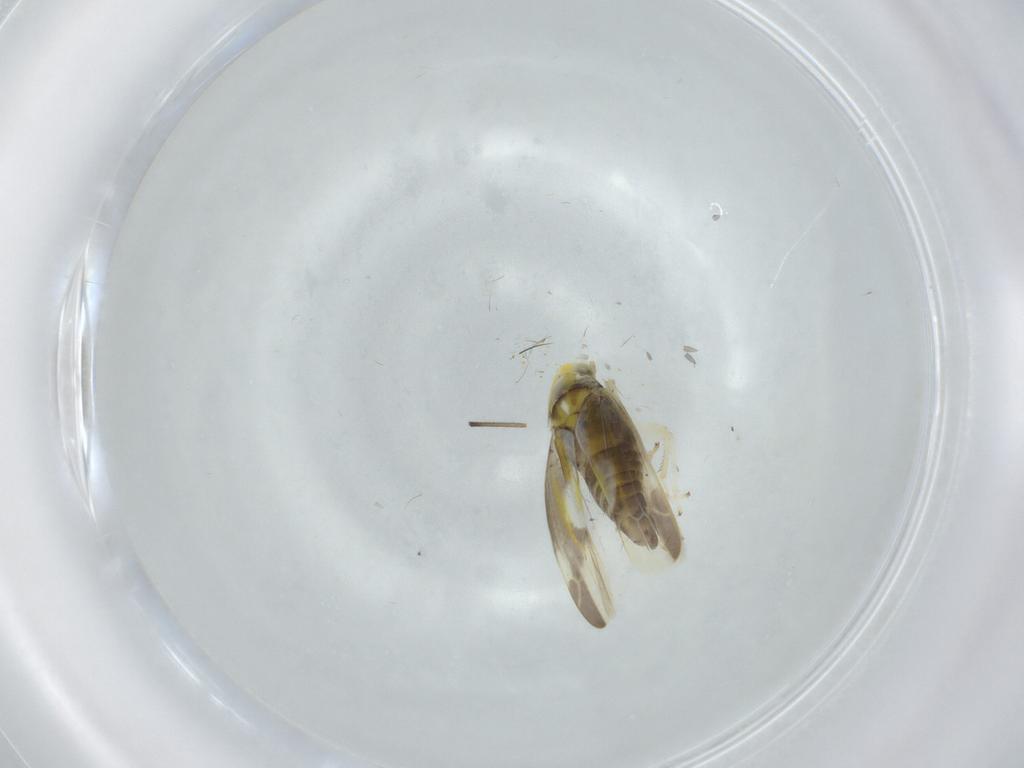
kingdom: Animalia
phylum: Arthropoda
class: Insecta
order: Hemiptera
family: Cicadellidae
